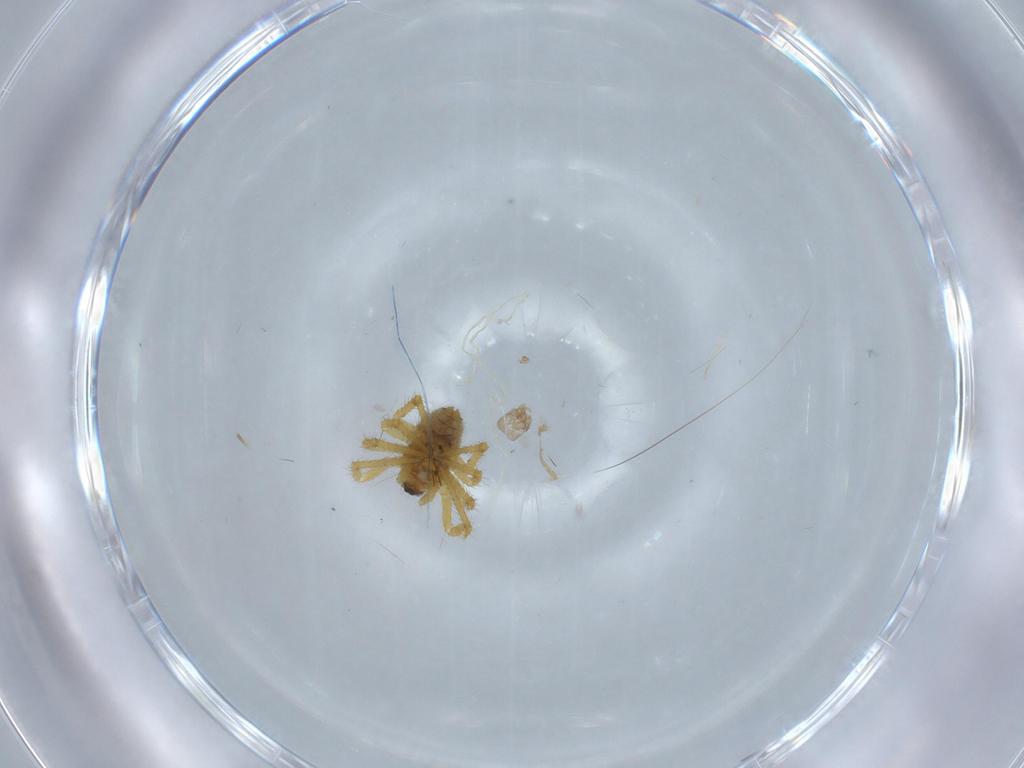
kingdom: Animalia
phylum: Arthropoda
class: Arachnida
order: Araneae
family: Theridiidae
